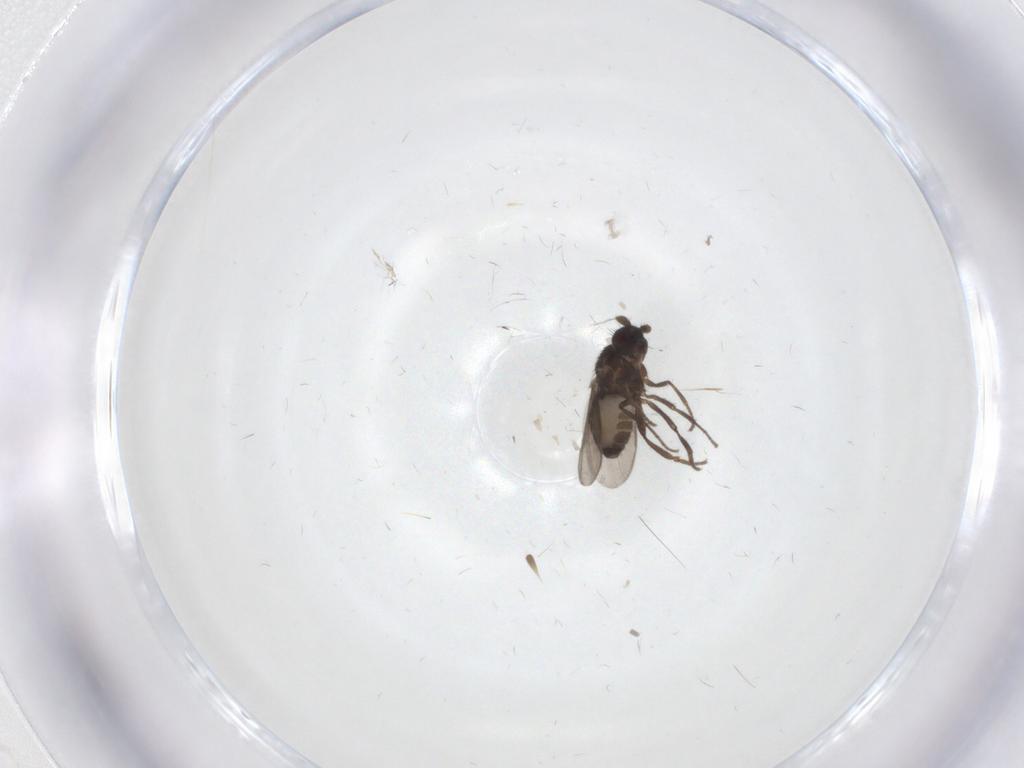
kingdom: Animalia
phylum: Arthropoda
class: Insecta
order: Diptera
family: Sphaeroceridae
